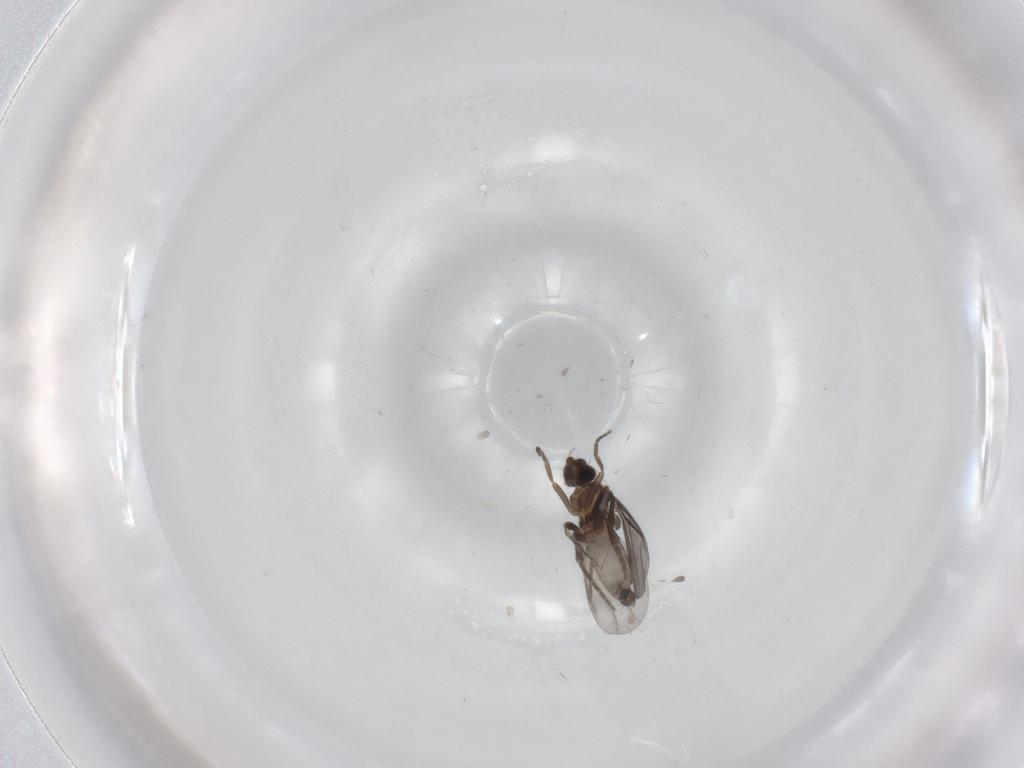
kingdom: Animalia
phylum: Arthropoda
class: Insecta
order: Diptera
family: Phoridae
